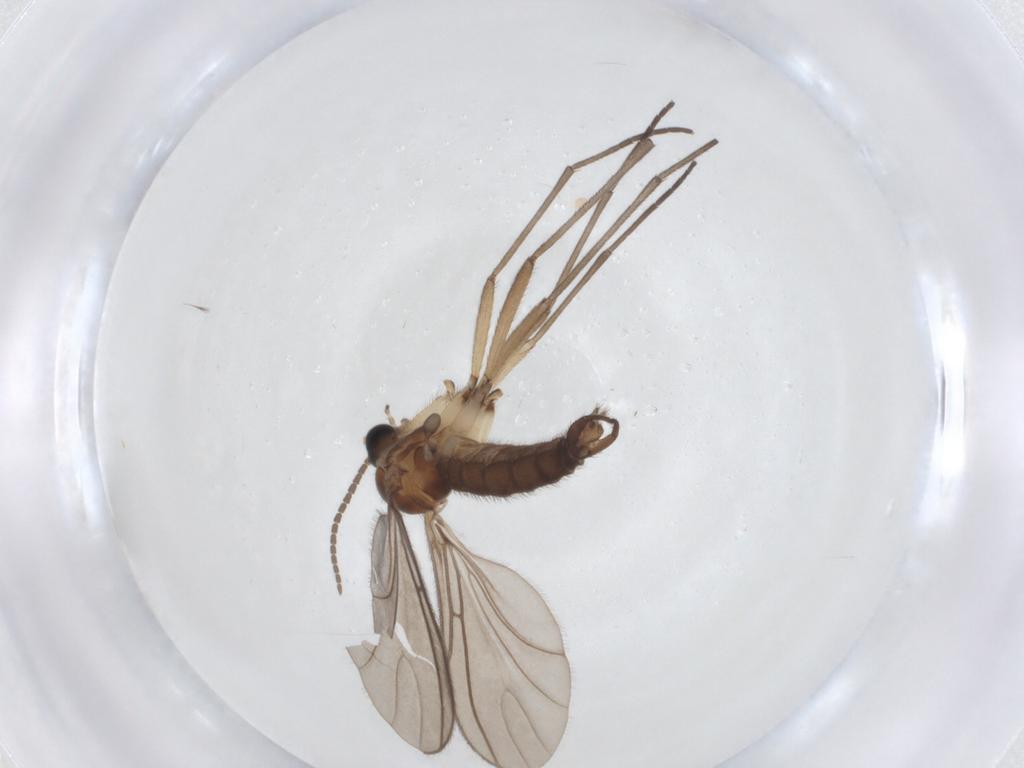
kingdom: Animalia
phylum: Arthropoda
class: Insecta
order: Diptera
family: Sciaridae
